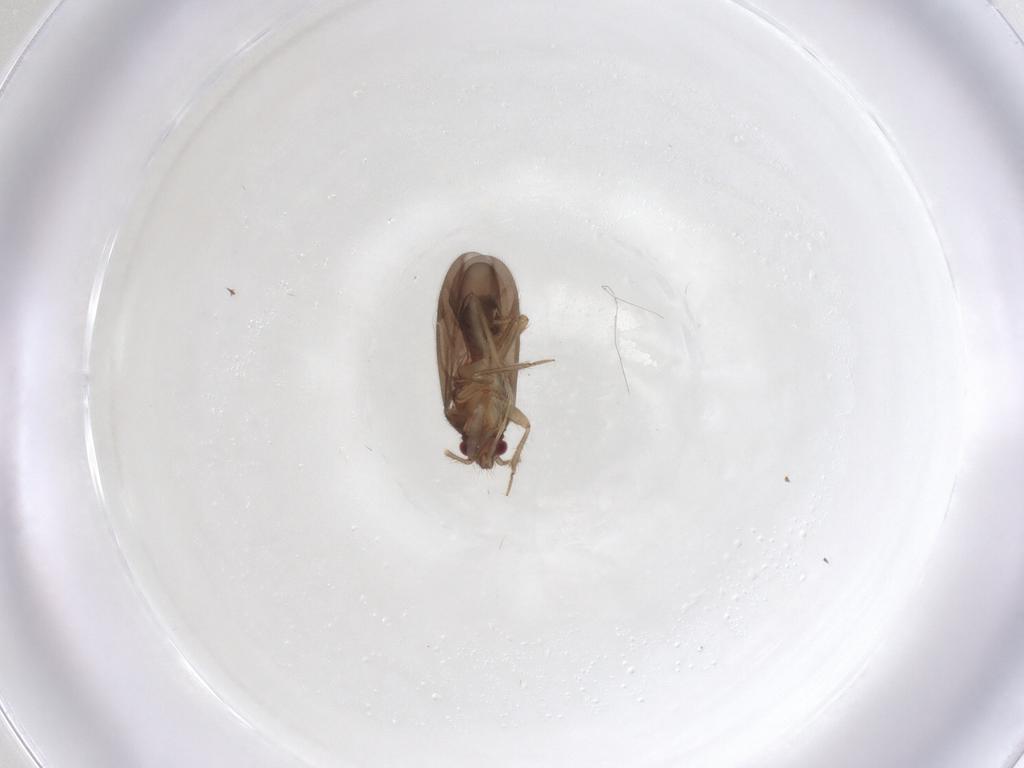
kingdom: Animalia
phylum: Arthropoda
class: Insecta
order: Hemiptera
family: Ceratocombidae
